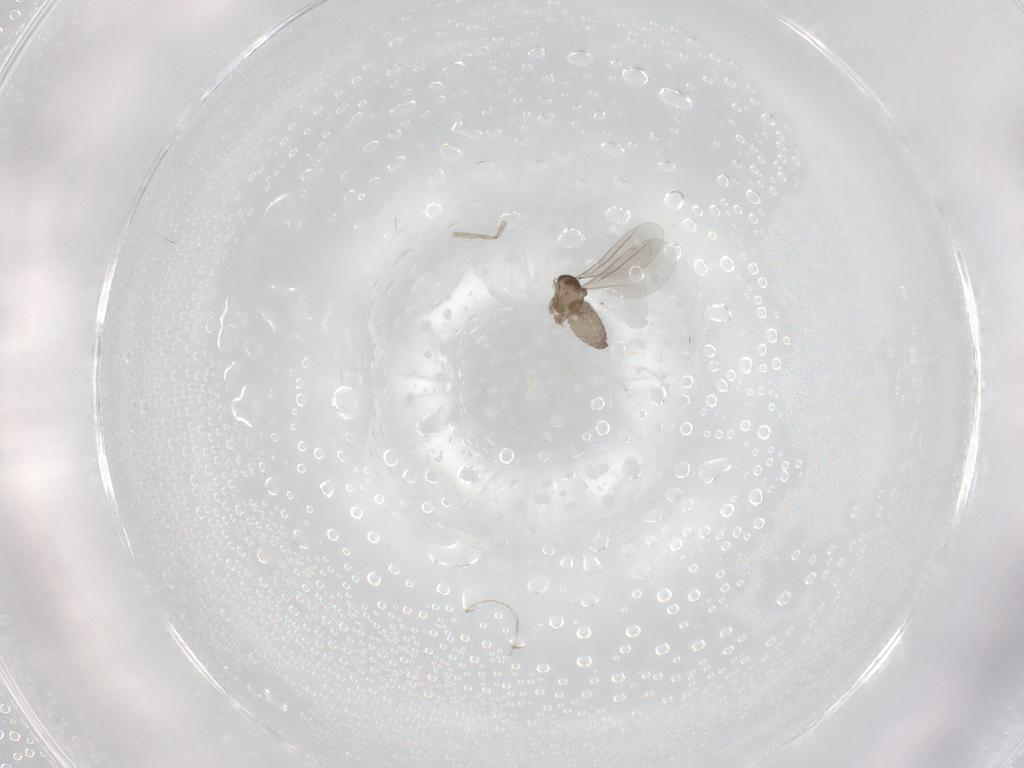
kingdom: Animalia
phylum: Arthropoda
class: Insecta
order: Diptera
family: Cecidomyiidae
